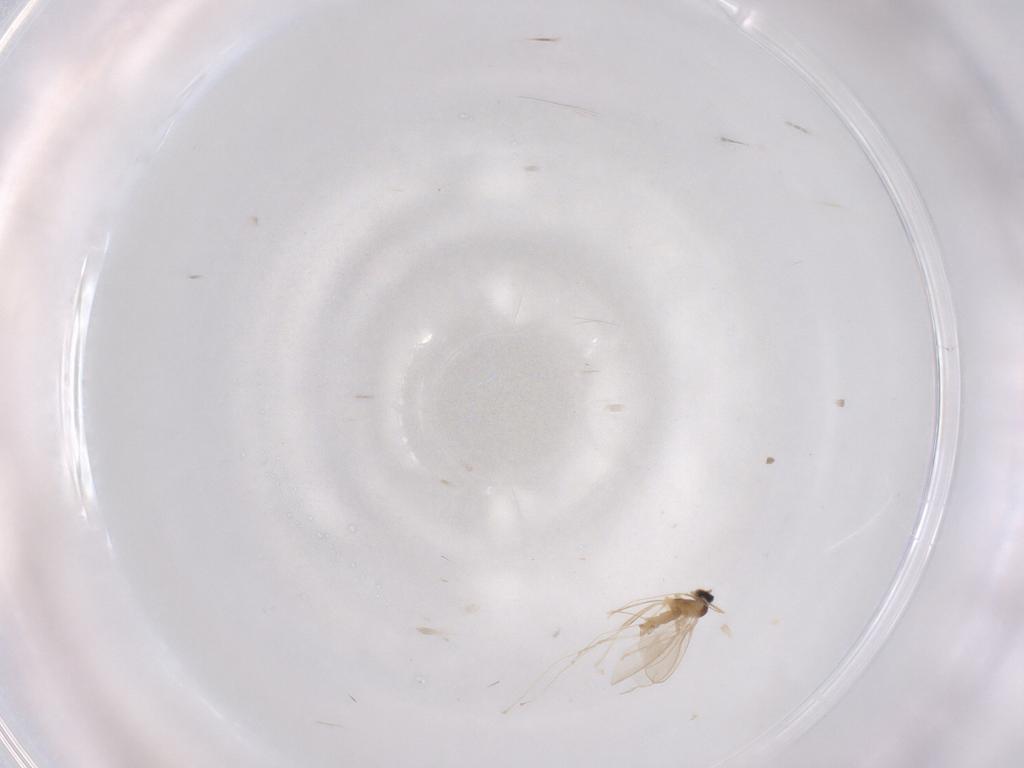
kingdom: Animalia
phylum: Arthropoda
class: Insecta
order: Diptera
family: Cecidomyiidae
